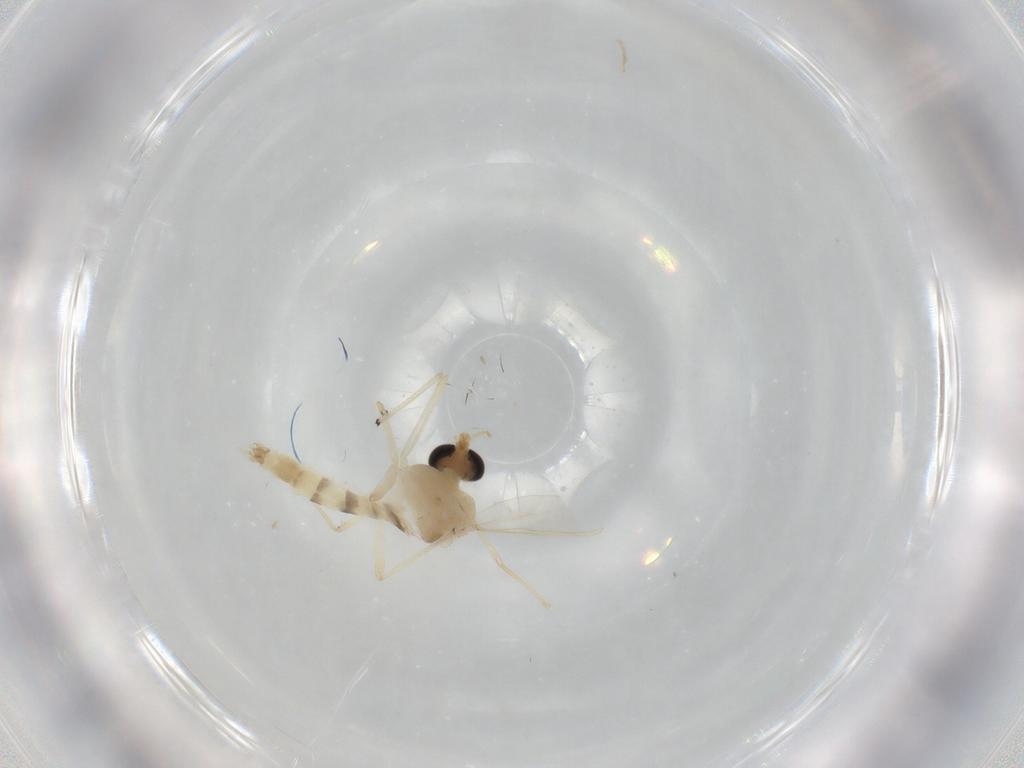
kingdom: Animalia
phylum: Arthropoda
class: Insecta
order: Diptera
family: Chironomidae
